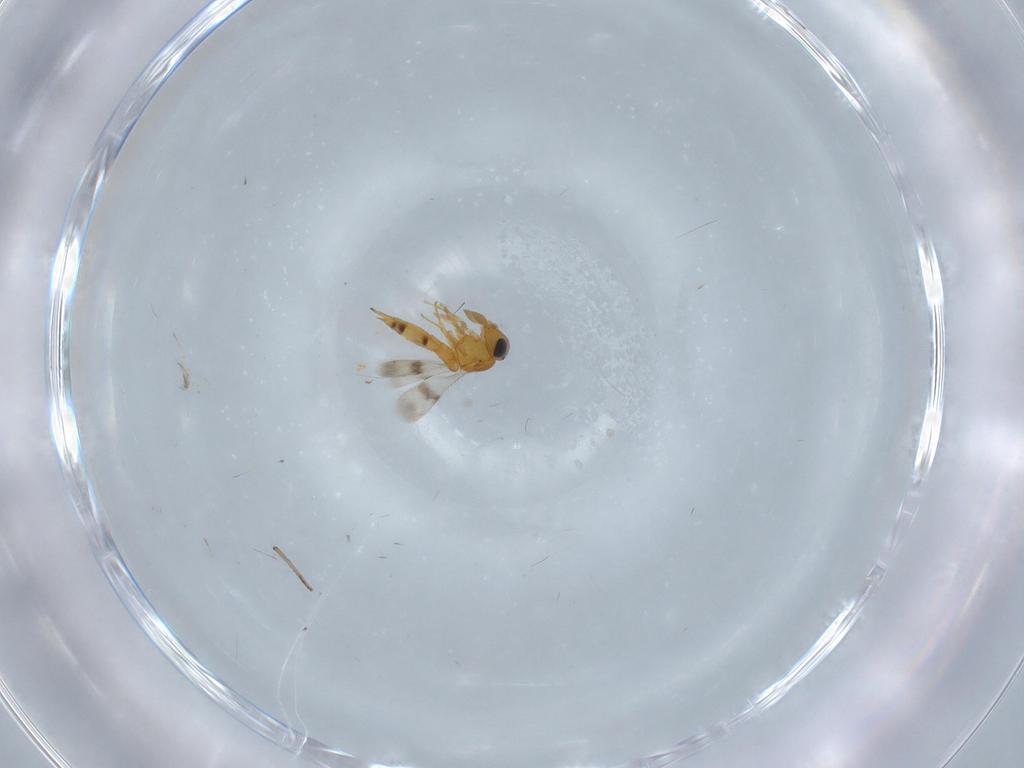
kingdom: Animalia
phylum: Arthropoda
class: Insecta
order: Hymenoptera
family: Scelionidae
